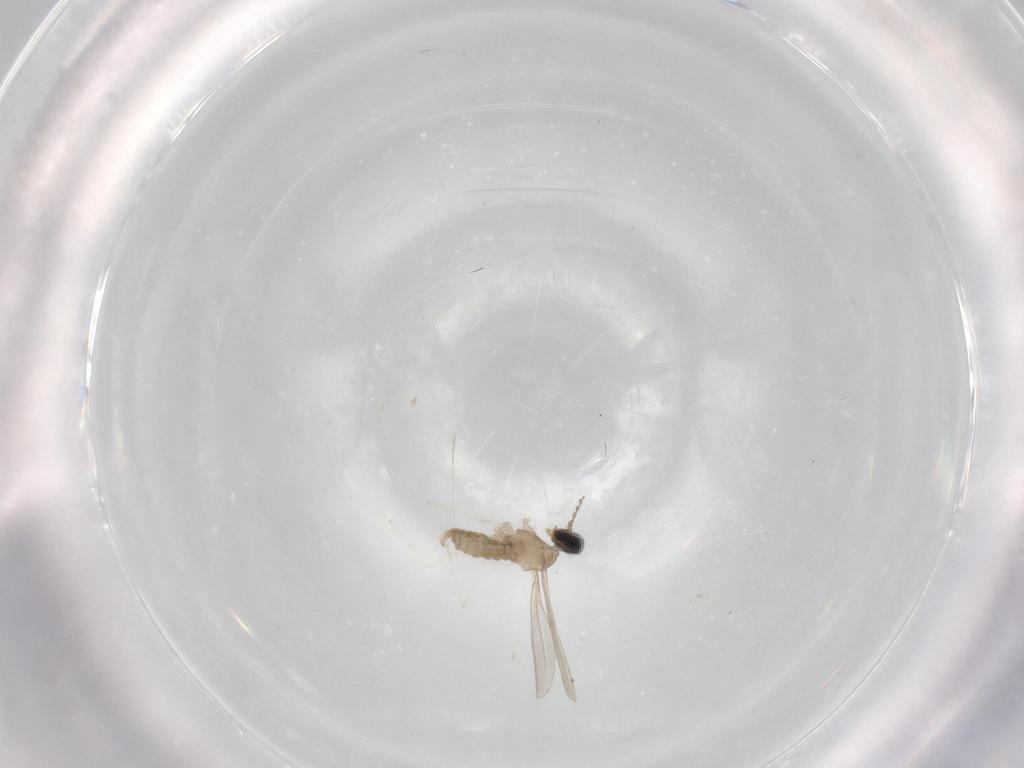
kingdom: Animalia
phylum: Arthropoda
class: Insecta
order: Diptera
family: Cecidomyiidae
